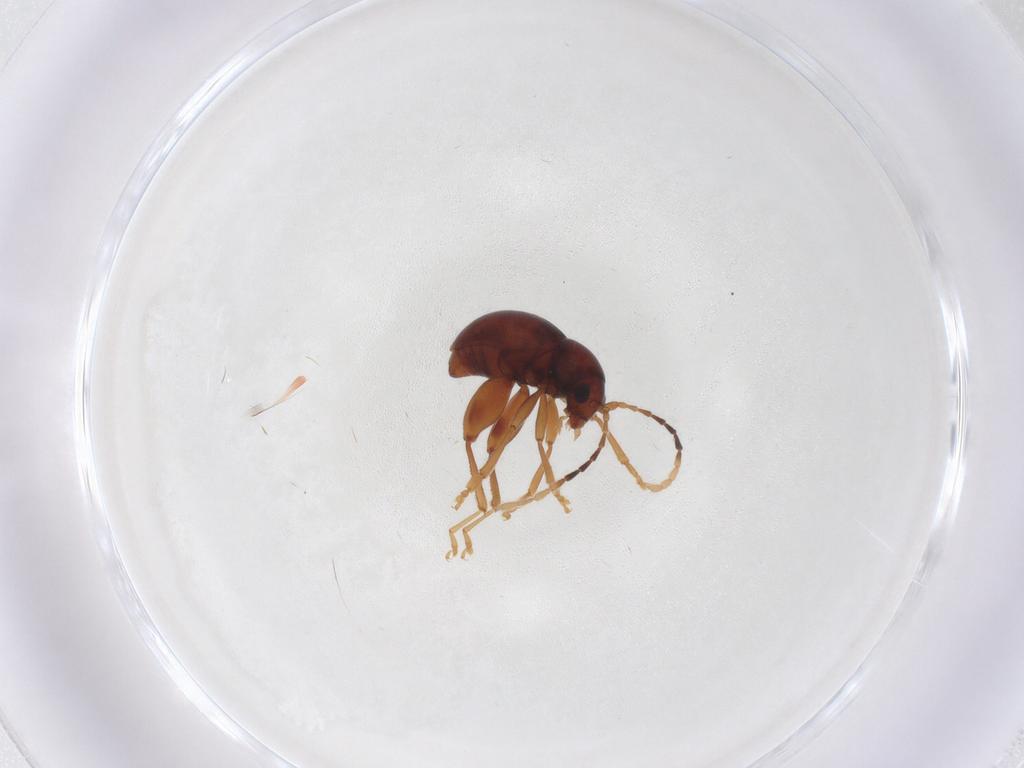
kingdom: Animalia
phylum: Arthropoda
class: Insecta
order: Coleoptera
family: Chrysomelidae
